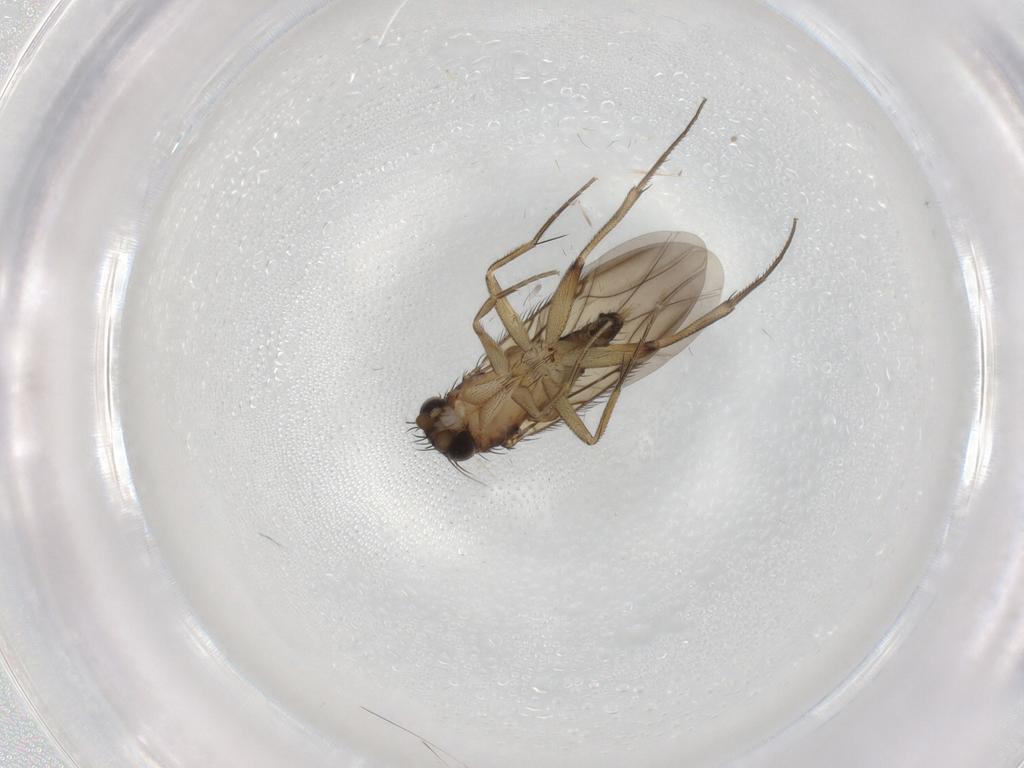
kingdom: Animalia
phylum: Arthropoda
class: Insecta
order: Diptera
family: Phoridae
